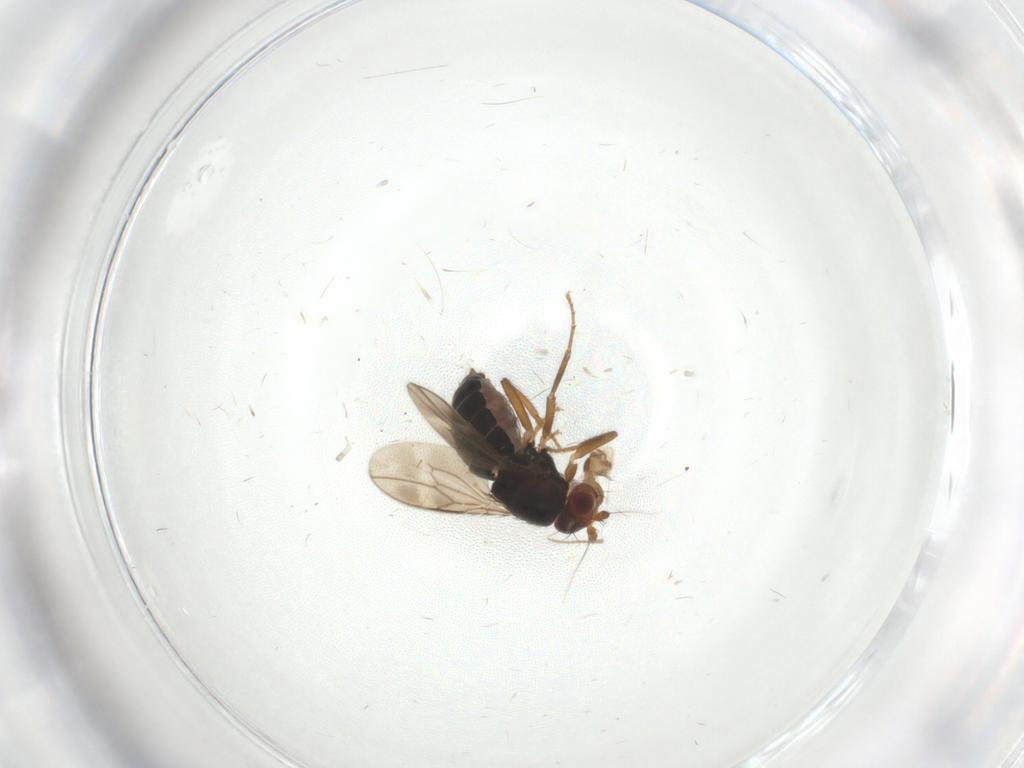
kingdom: Animalia
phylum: Arthropoda
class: Insecta
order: Diptera
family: Sphaeroceridae
